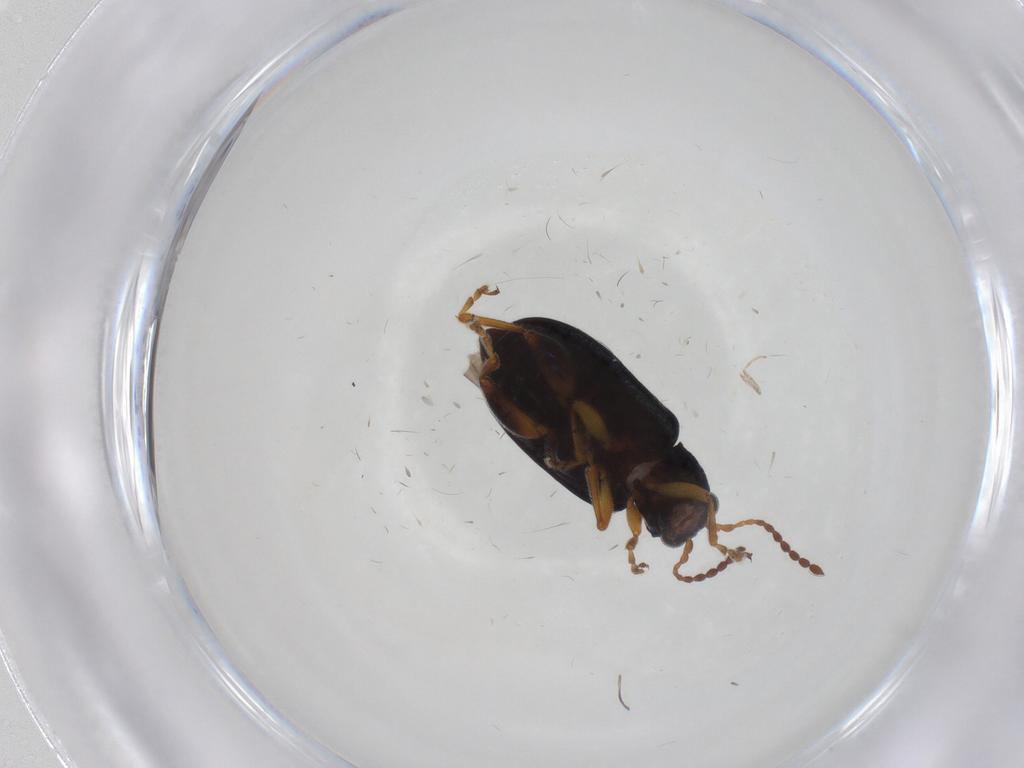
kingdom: Animalia
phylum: Arthropoda
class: Insecta
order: Coleoptera
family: Chrysomelidae
